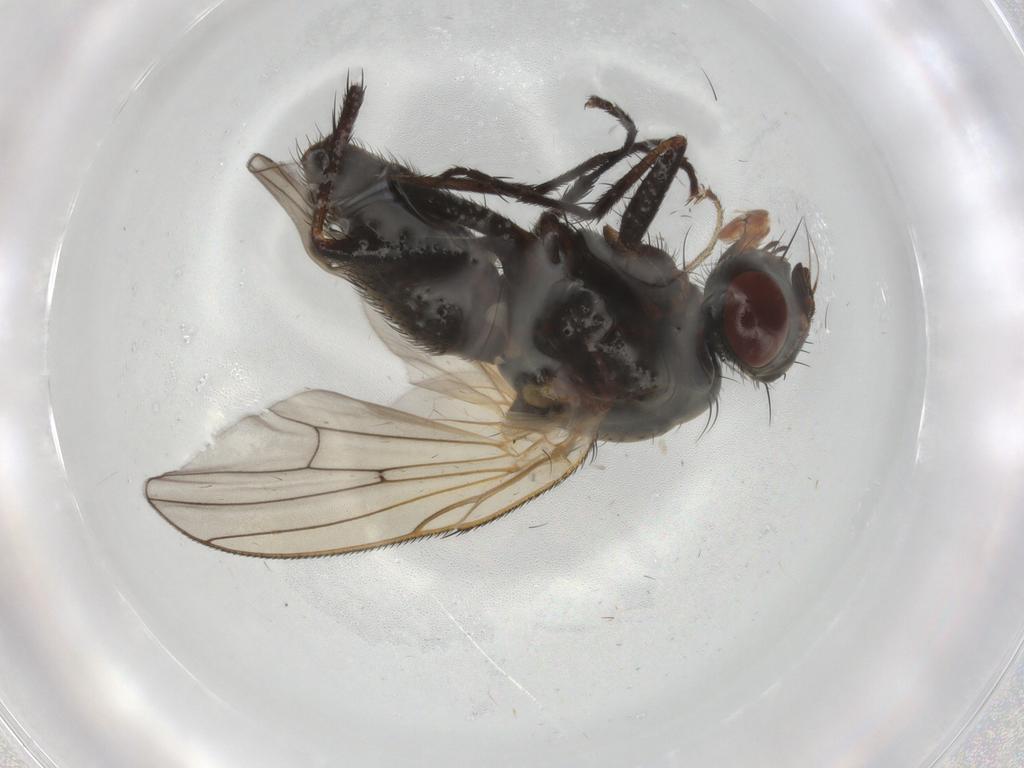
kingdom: Animalia
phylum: Arthropoda
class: Insecta
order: Diptera
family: Anthomyiidae
